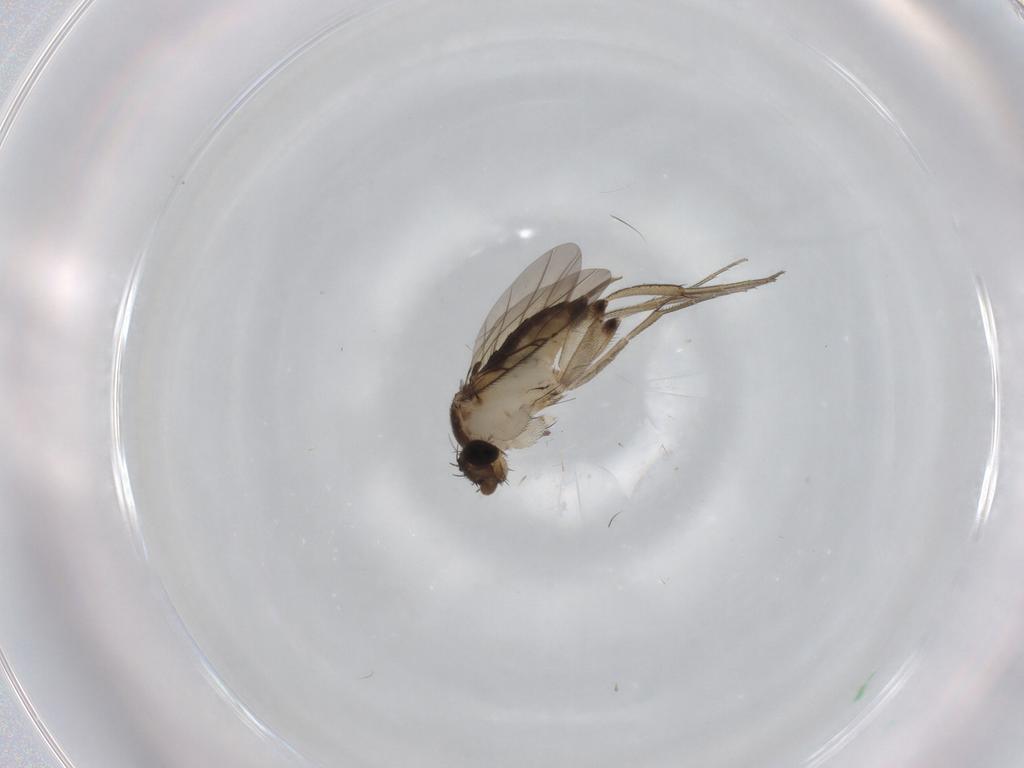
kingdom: Animalia
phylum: Arthropoda
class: Insecta
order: Diptera
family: Phoridae
